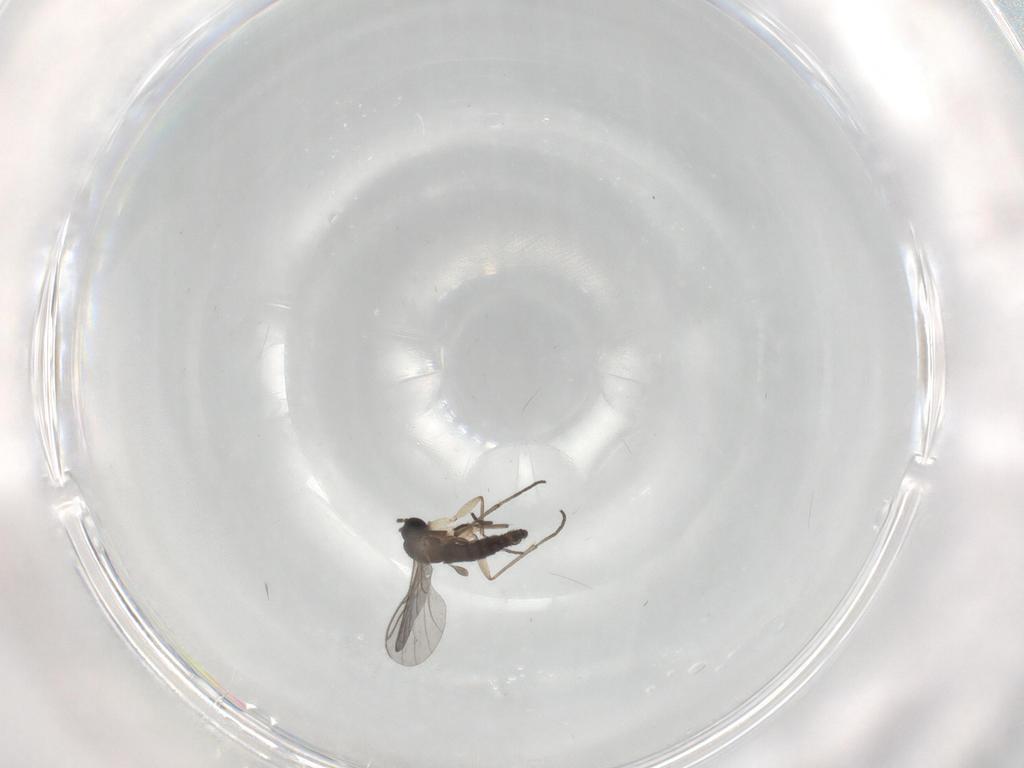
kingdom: Animalia
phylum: Arthropoda
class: Insecta
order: Diptera
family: Sciaridae
